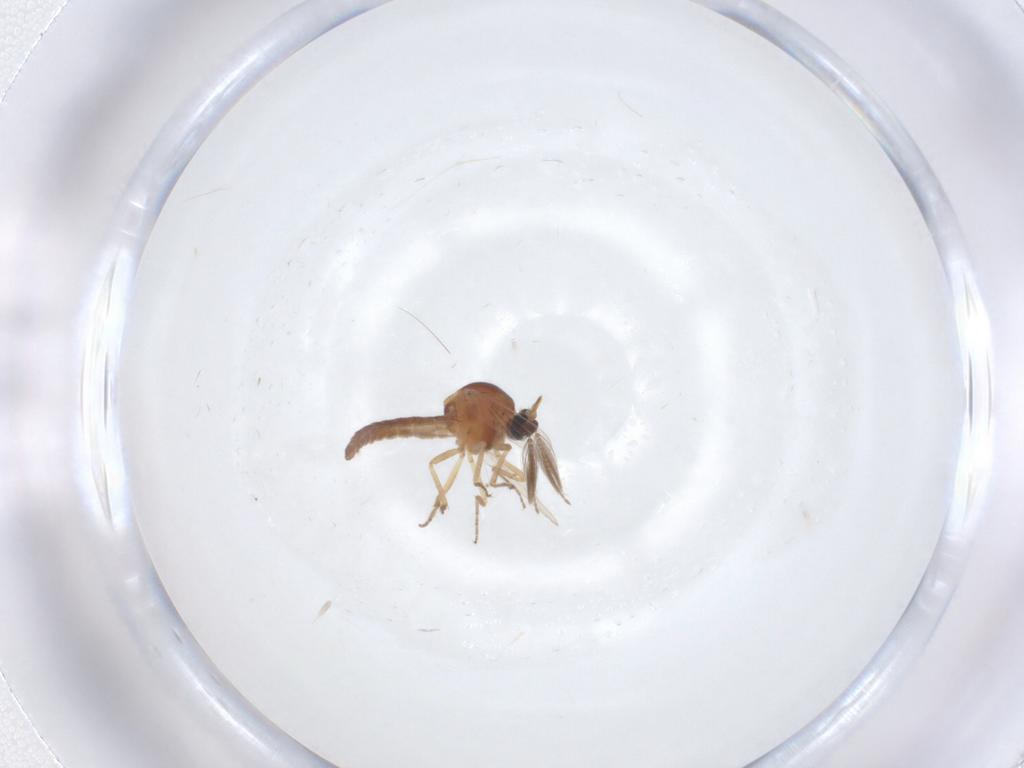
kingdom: Animalia
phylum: Arthropoda
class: Insecta
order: Diptera
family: Ceratopogonidae
